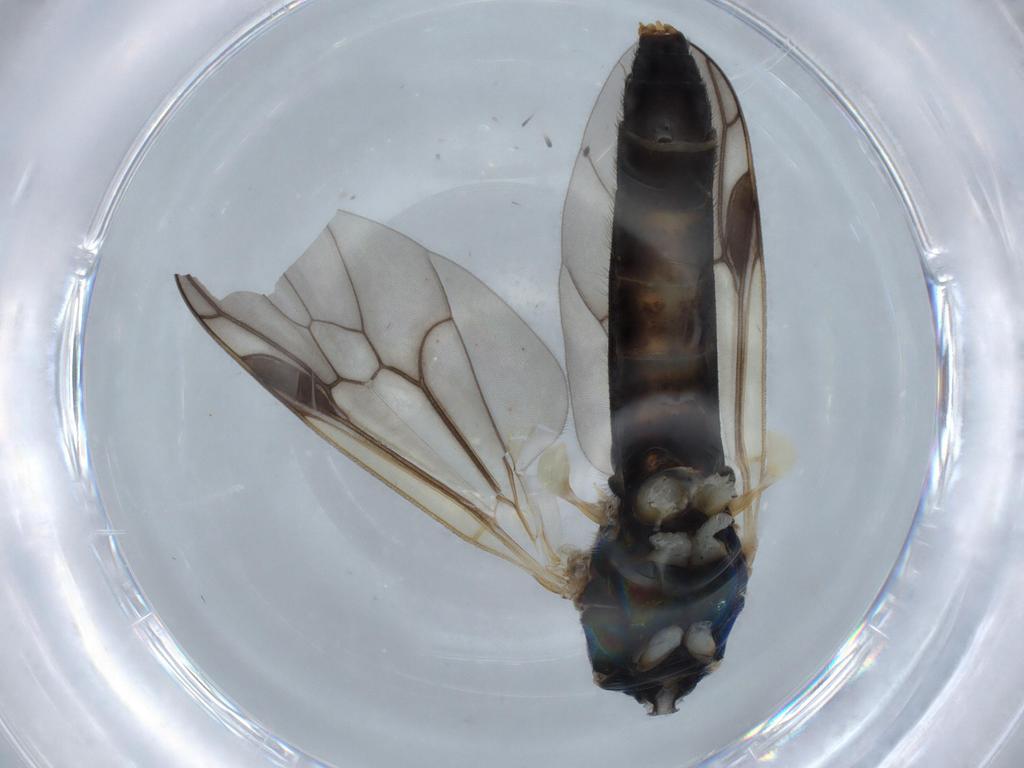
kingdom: Animalia
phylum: Arthropoda
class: Insecta
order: Diptera
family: Stratiomyidae
